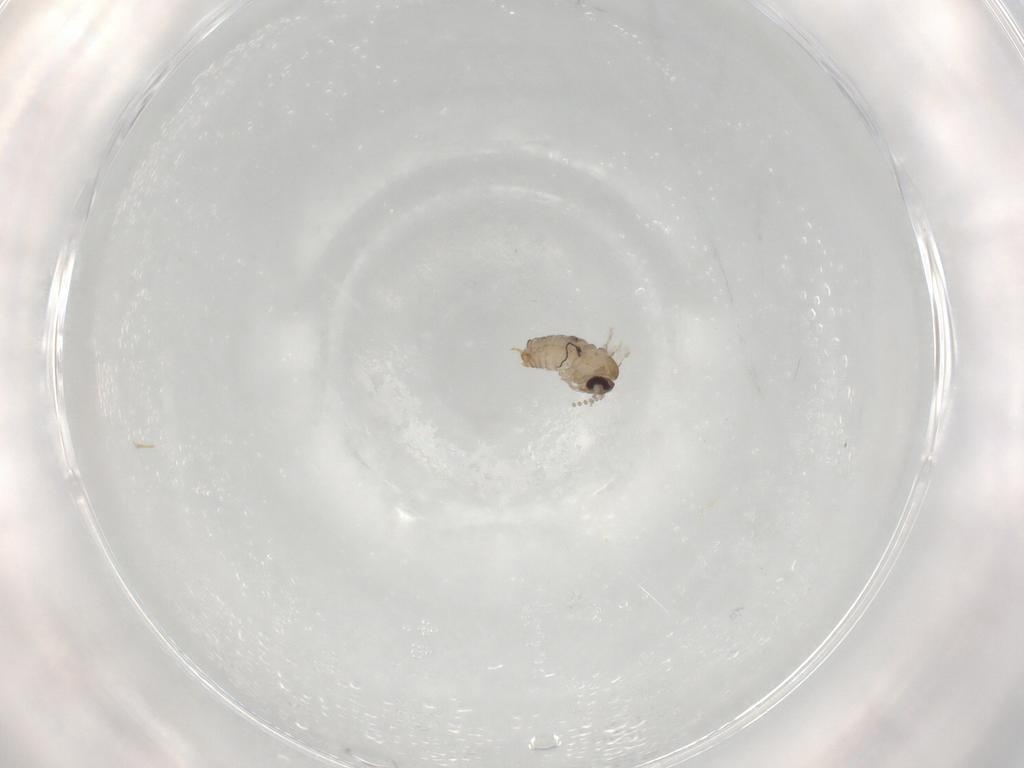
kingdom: Animalia
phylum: Arthropoda
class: Insecta
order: Diptera
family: Psychodidae
